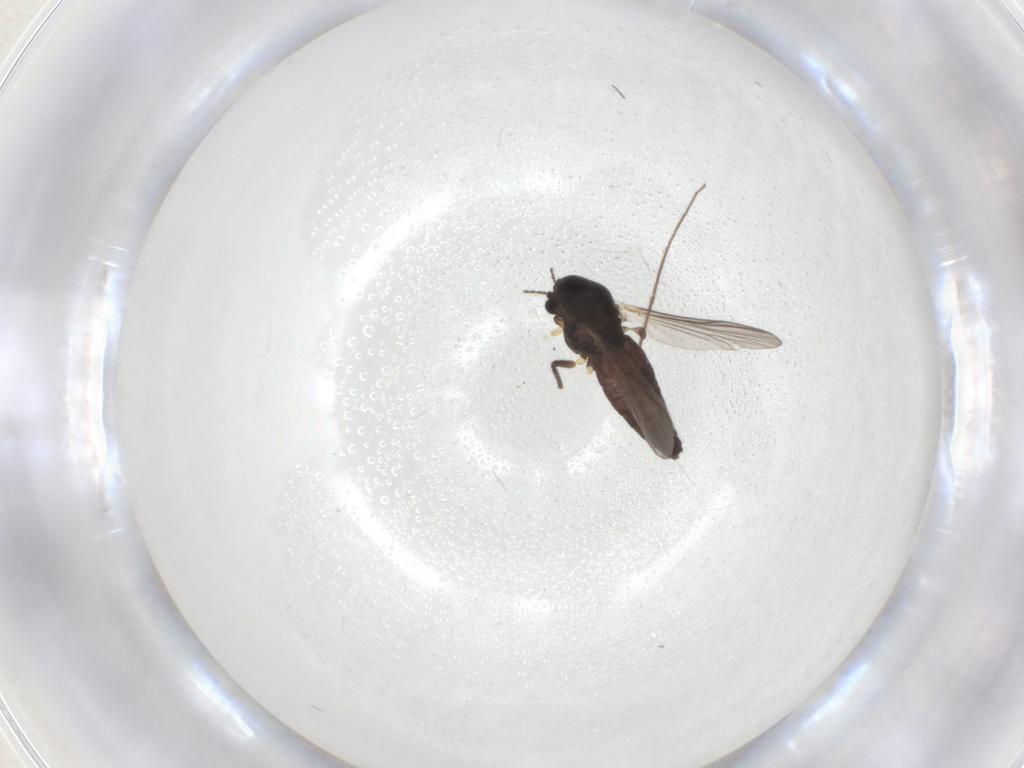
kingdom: Animalia
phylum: Arthropoda
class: Insecta
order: Diptera
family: Chironomidae
